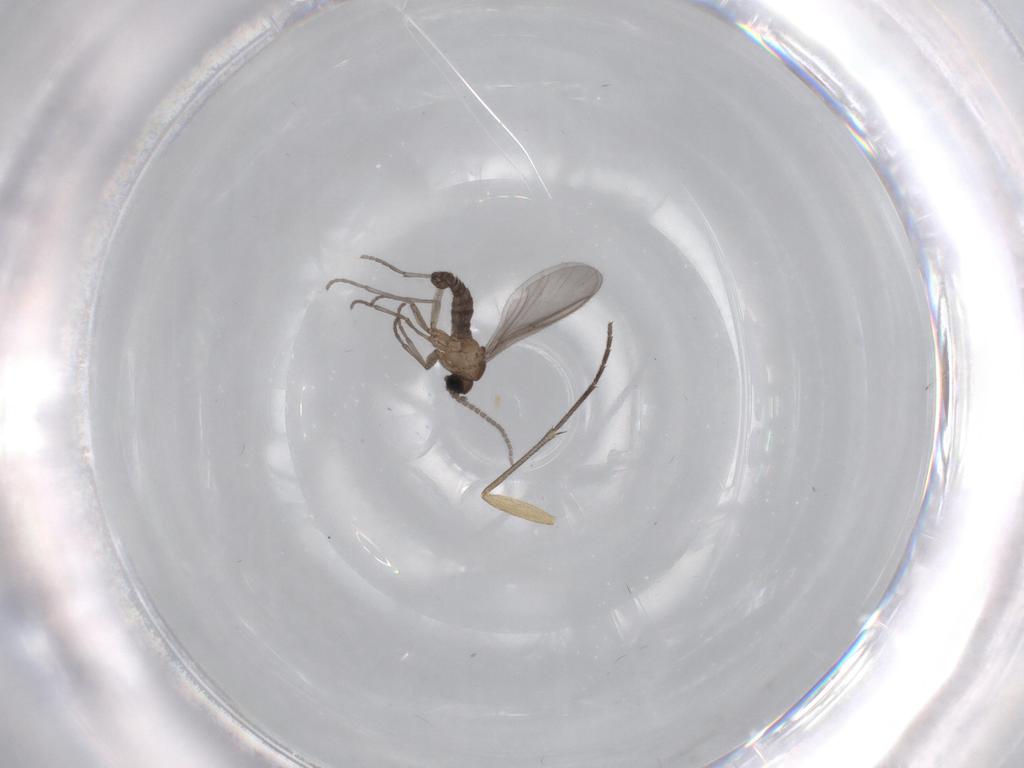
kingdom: Animalia
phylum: Arthropoda
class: Insecta
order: Diptera
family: Sciaridae
